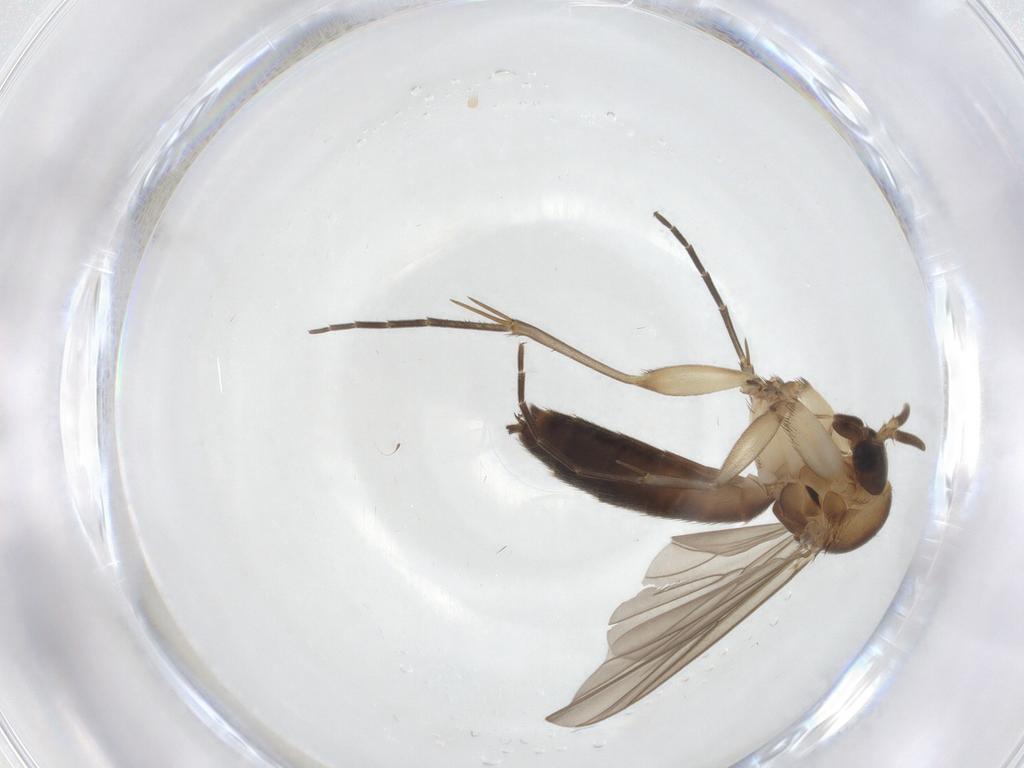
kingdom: Animalia
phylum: Arthropoda
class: Insecta
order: Diptera
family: Mycetophilidae
